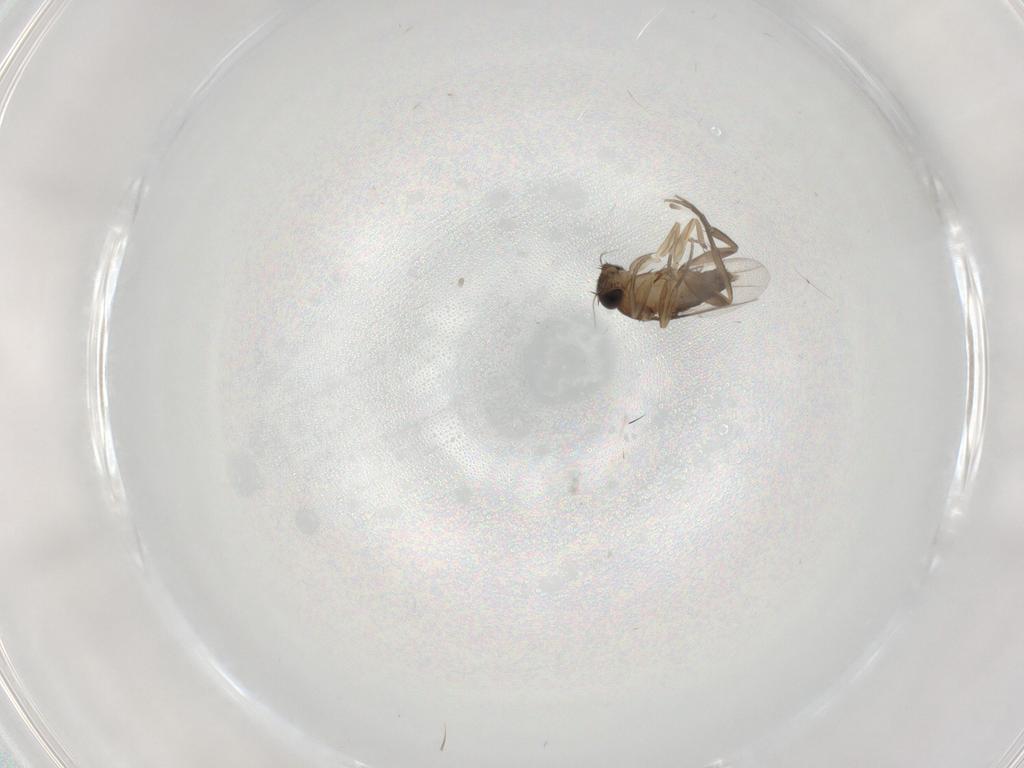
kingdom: Animalia
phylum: Arthropoda
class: Insecta
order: Diptera
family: Phoridae
